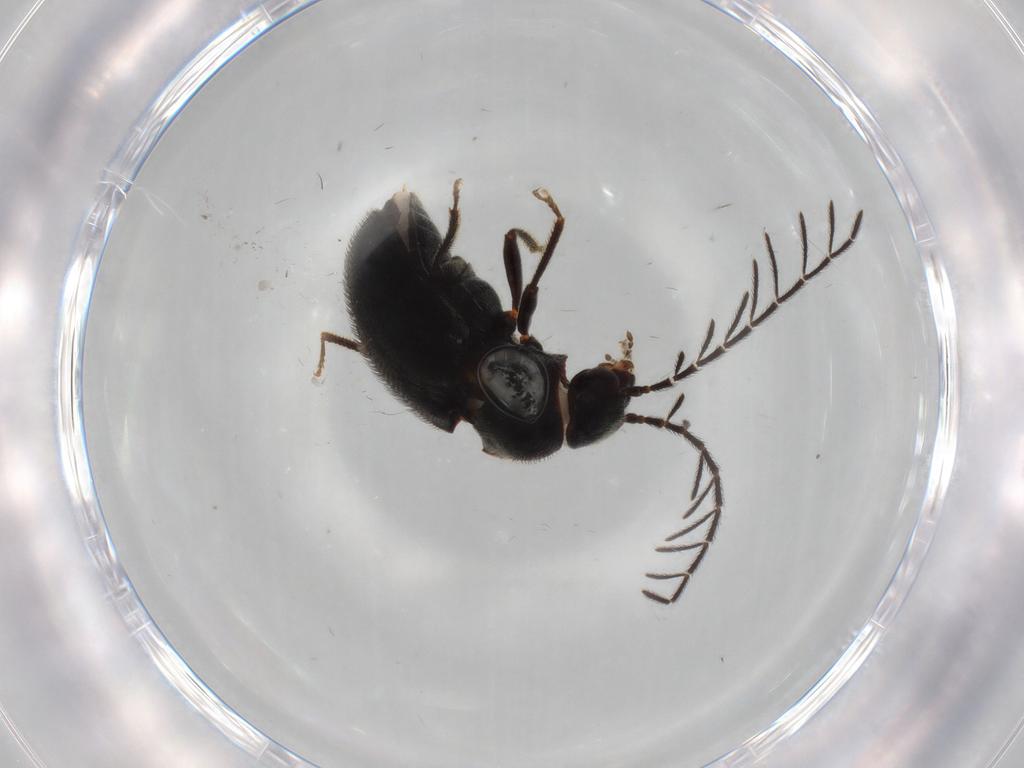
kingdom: Animalia
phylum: Arthropoda
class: Insecta
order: Coleoptera
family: Ptilodactylidae
